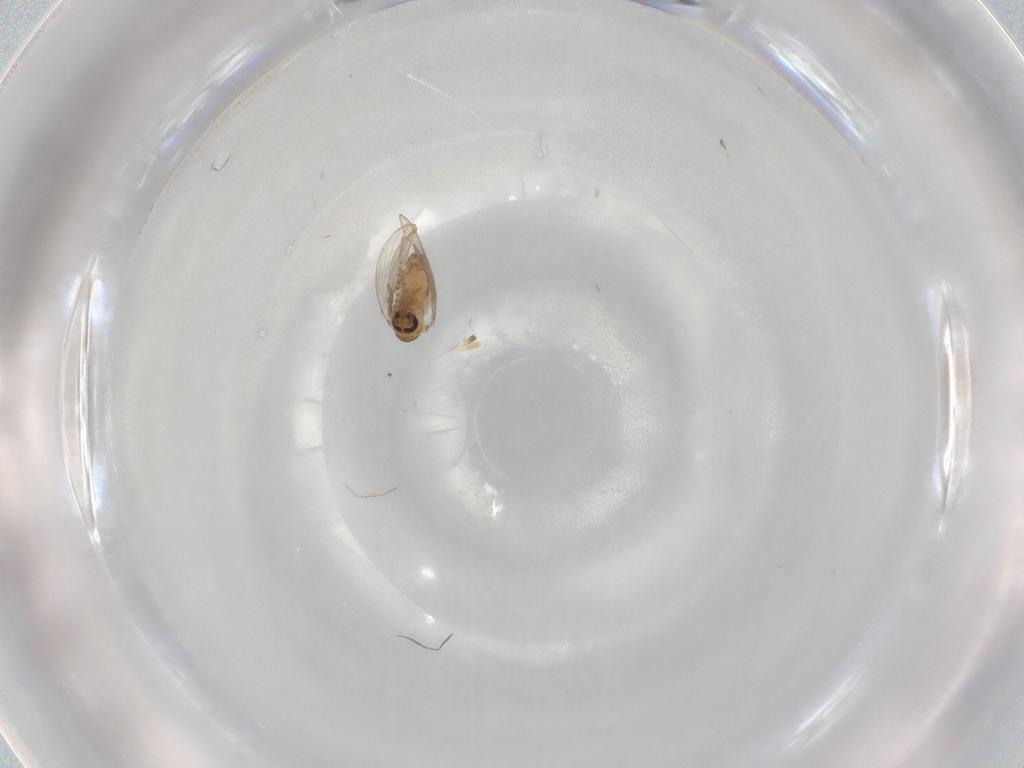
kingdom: Animalia
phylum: Arthropoda
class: Insecta
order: Diptera
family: Psychodidae
